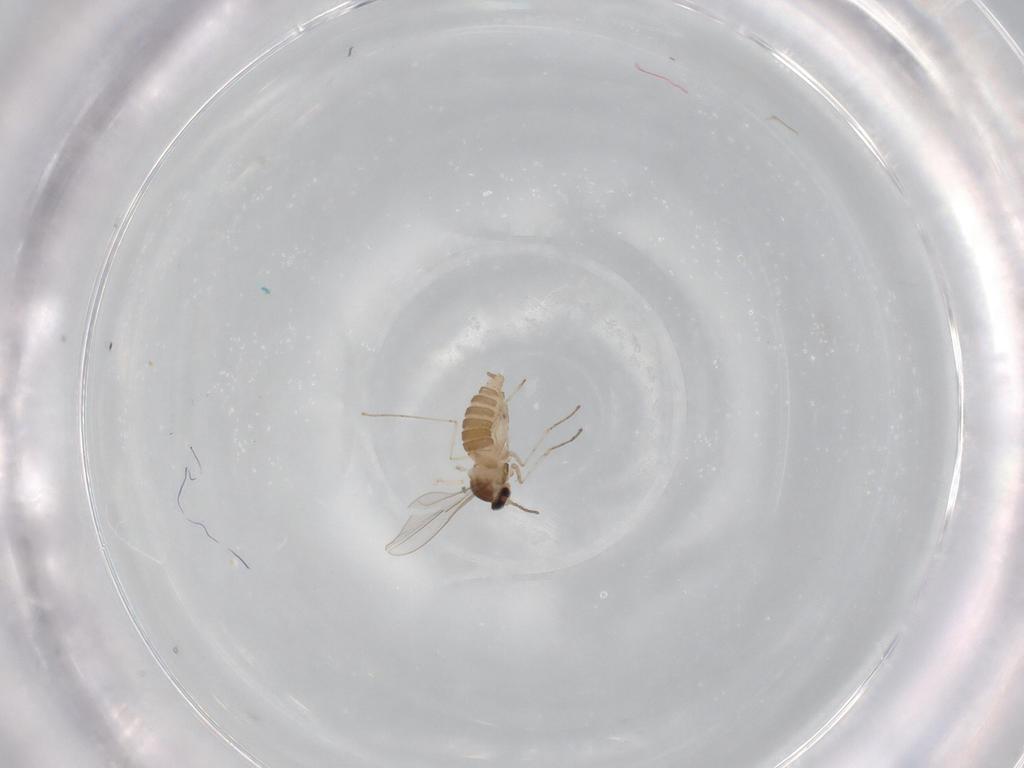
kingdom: Animalia
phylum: Arthropoda
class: Insecta
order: Diptera
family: Cecidomyiidae
